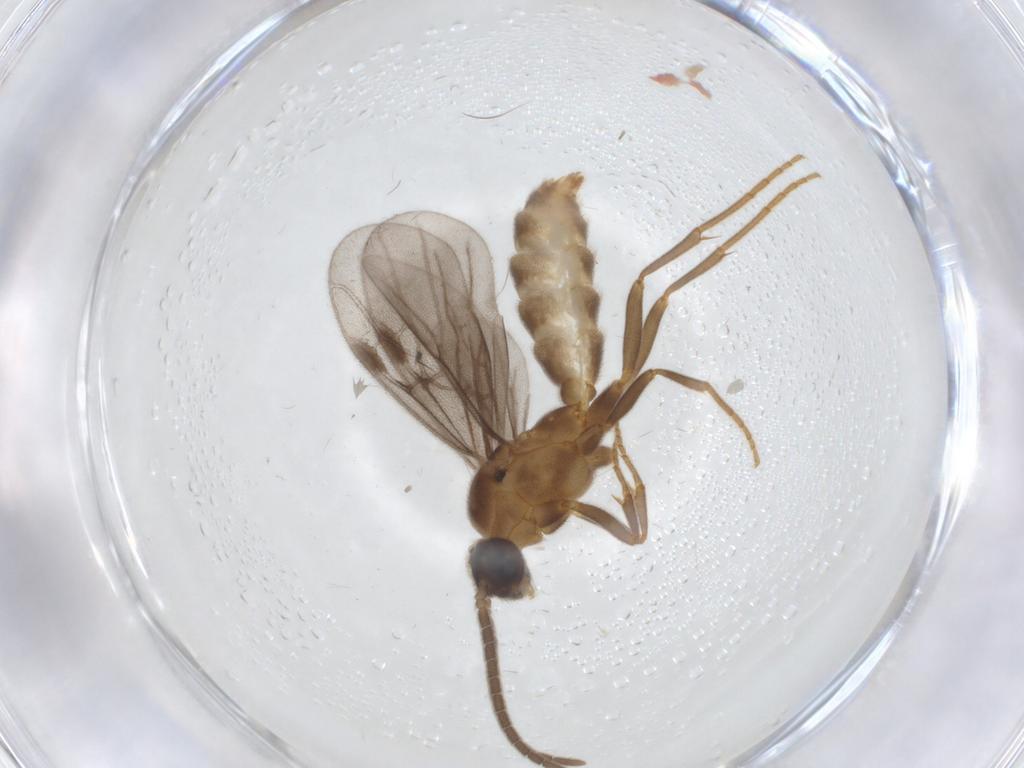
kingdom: Animalia
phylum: Arthropoda
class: Insecta
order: Hymenoptera
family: Formicidae
